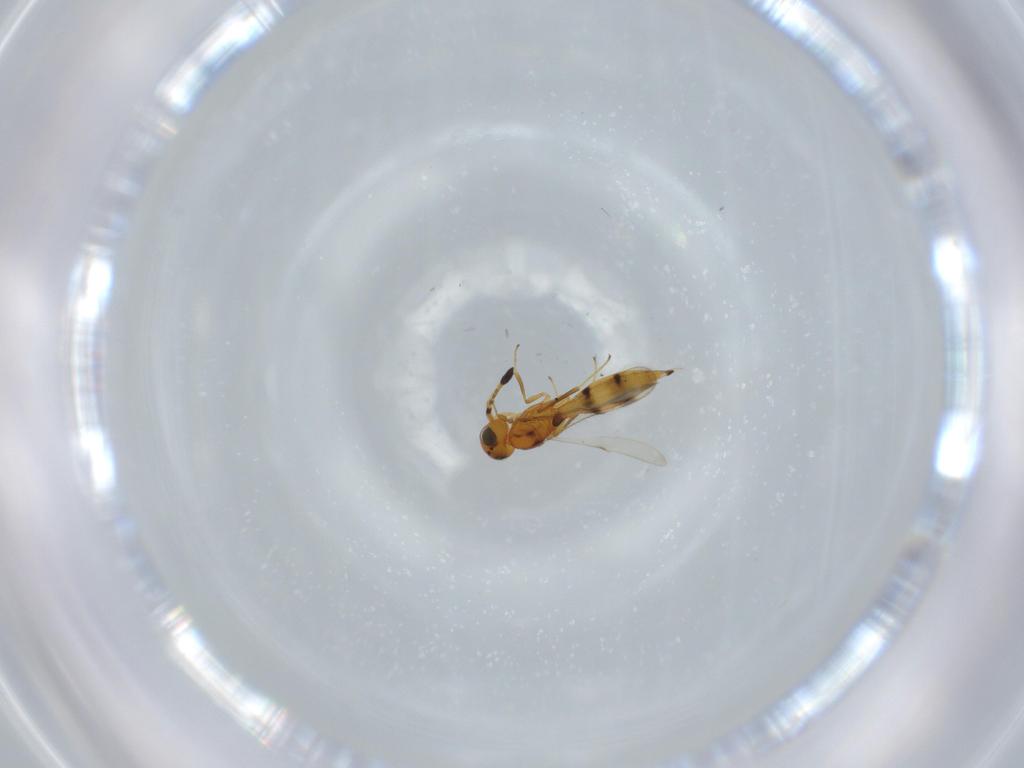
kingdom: Animalia
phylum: Arthropoda
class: Insecta
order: Hymenoptera
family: Scelionidae
